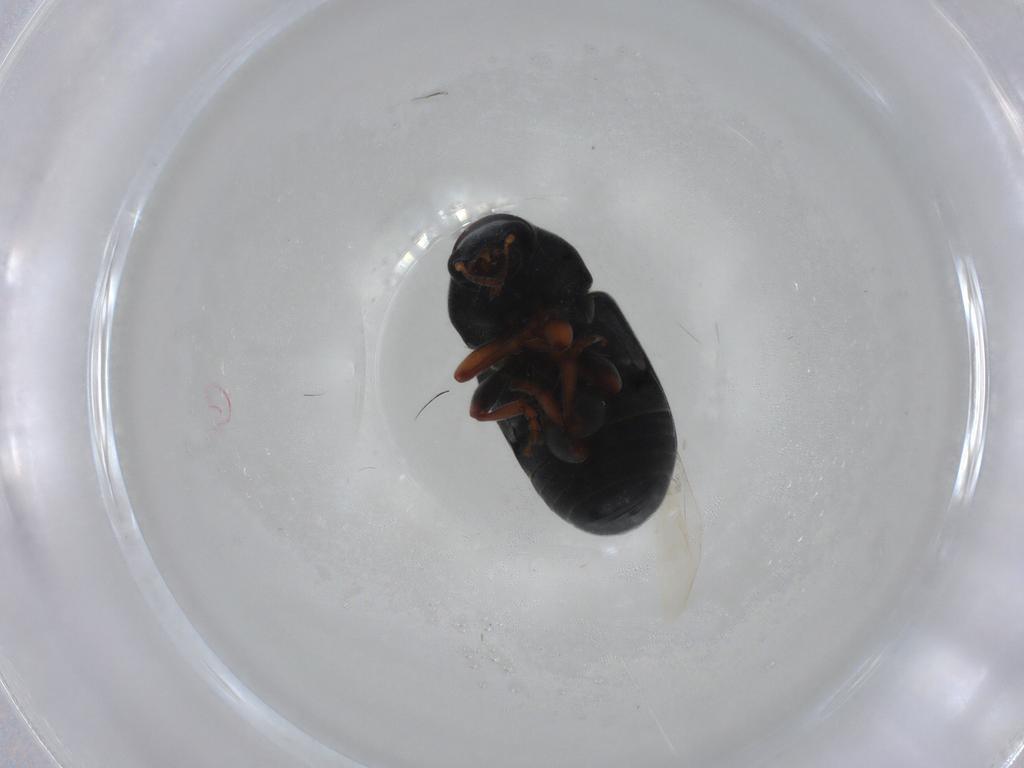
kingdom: Animalia
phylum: Arthropoda
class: Insecta
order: Coleoptera
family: Anthribidae
